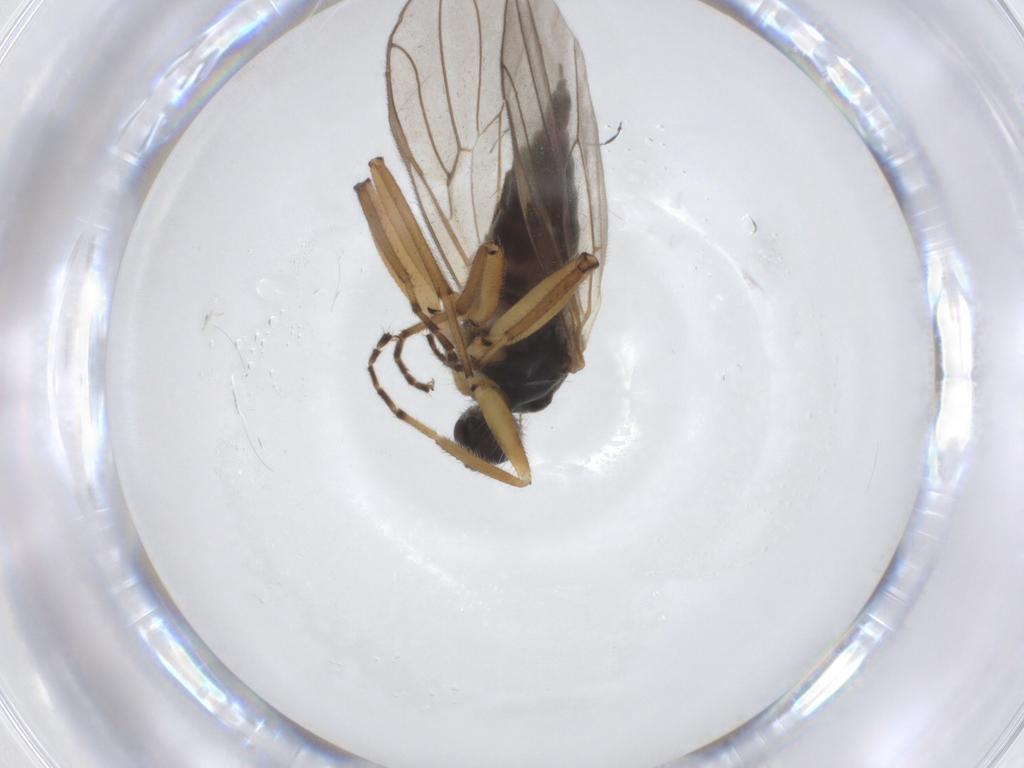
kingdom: Animalia
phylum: Arthropoda
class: Insecta
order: Diptera
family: Hybotidae
